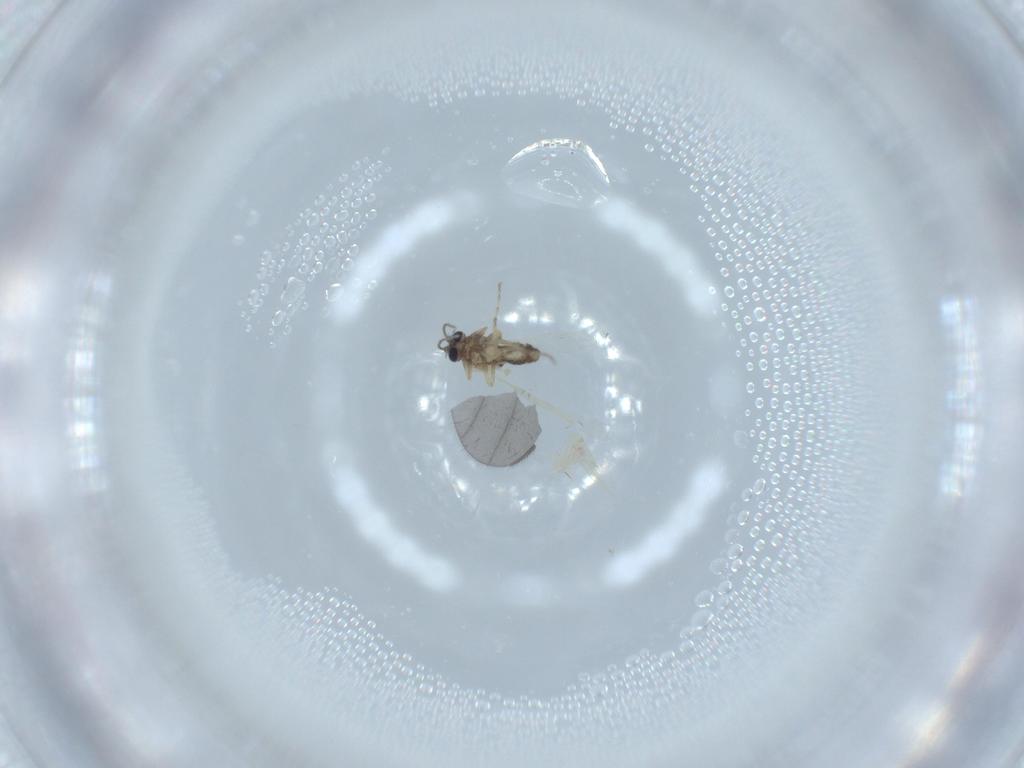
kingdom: Animalia
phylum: Arthropoda
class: Insecta
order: Diptera
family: Ceratopogonidae
